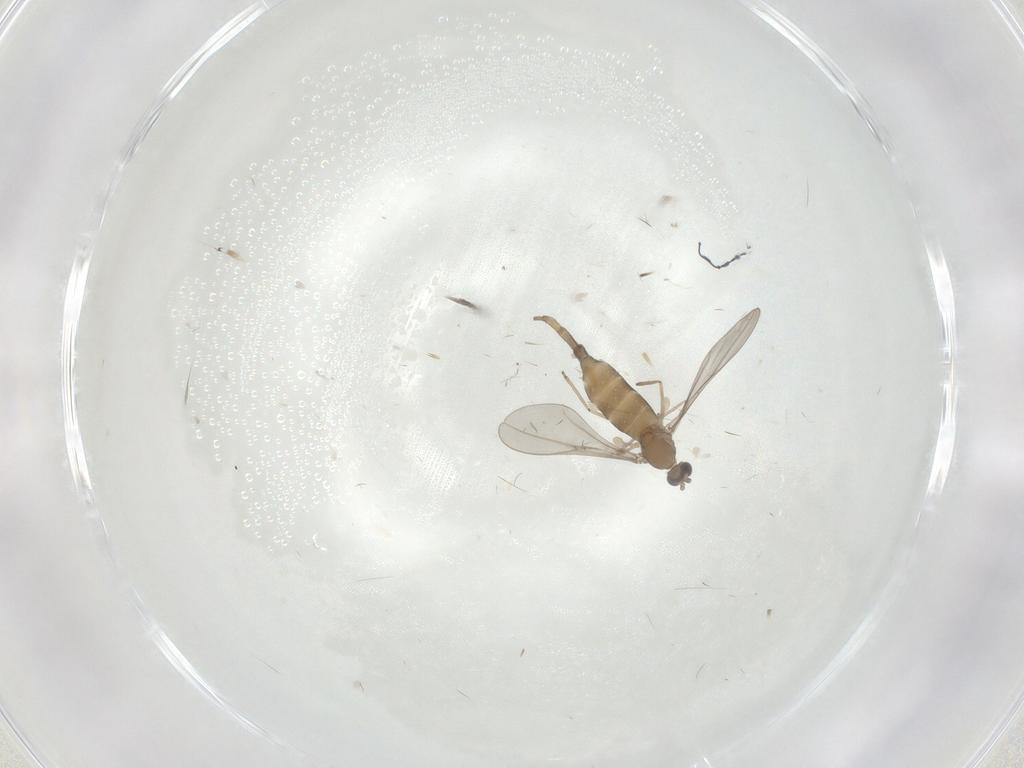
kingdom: Animalia
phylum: Arthropoda
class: Insecta
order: Diptera
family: Cecidomyiidae
